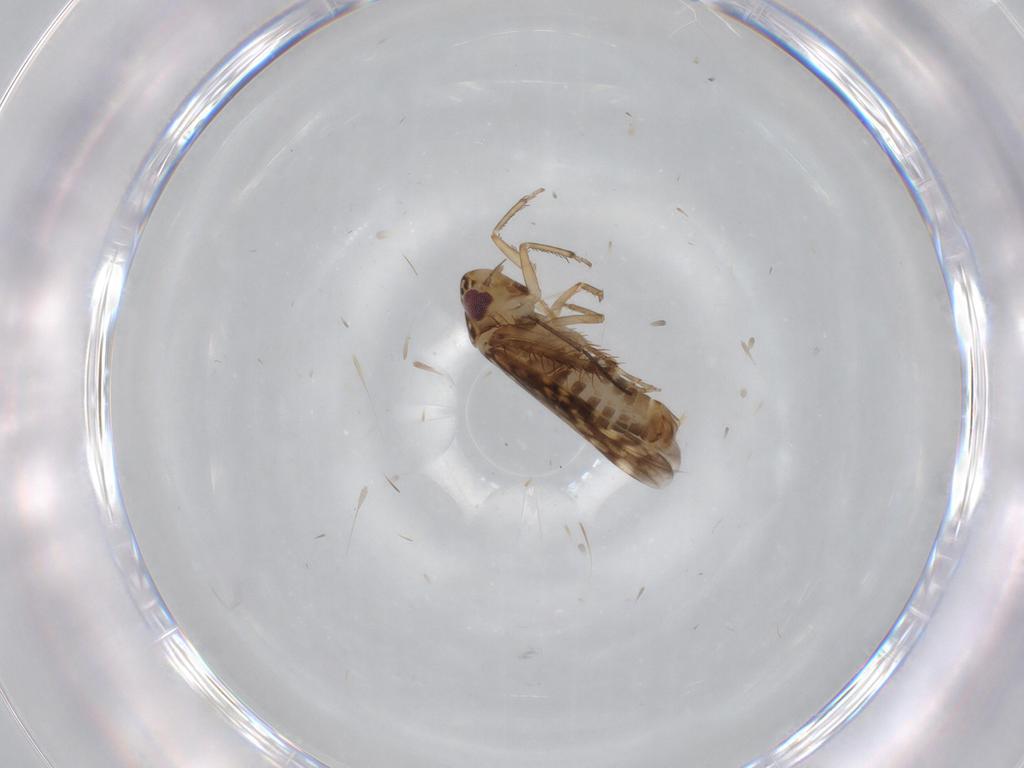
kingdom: Animalia
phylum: Arthropoda
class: Insecta
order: Hemiptera
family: Cicadellidae
